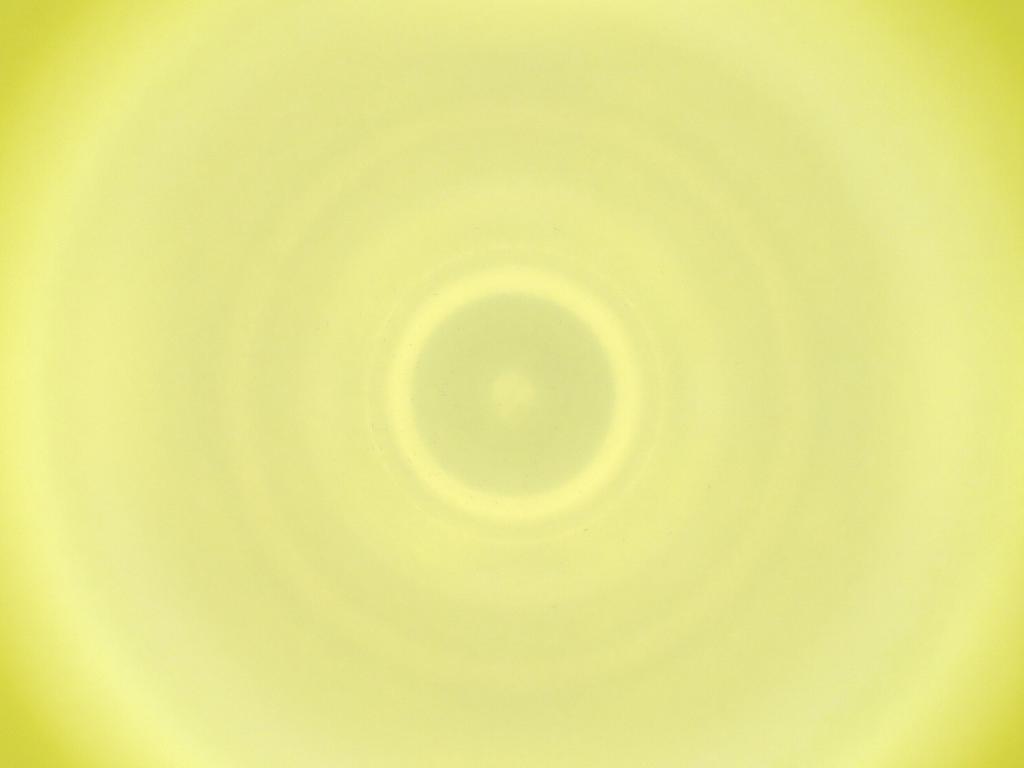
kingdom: Animalia
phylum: Arthropoda
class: Insecta
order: Diptera
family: Cecidomyiidae
